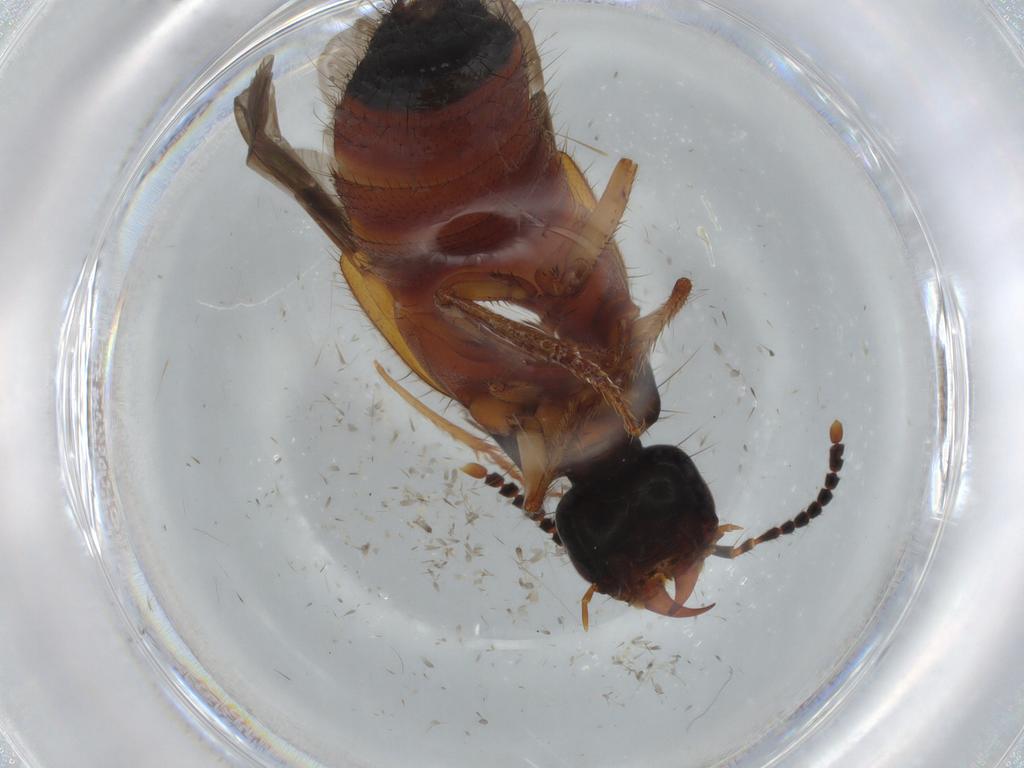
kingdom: Animalia
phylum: Arthropoda
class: Insecta
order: Coleoptera
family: Staphylinidae
